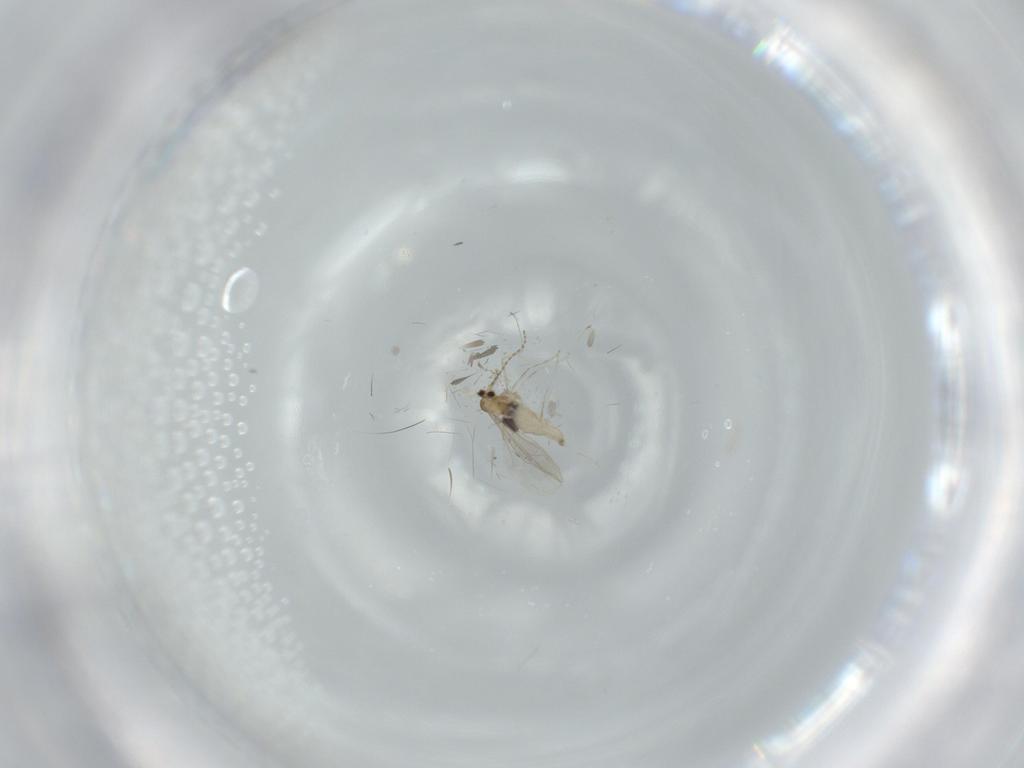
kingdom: Animalia
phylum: Arthropoda
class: Insecta
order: Diptera
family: Cecidomyiidae
